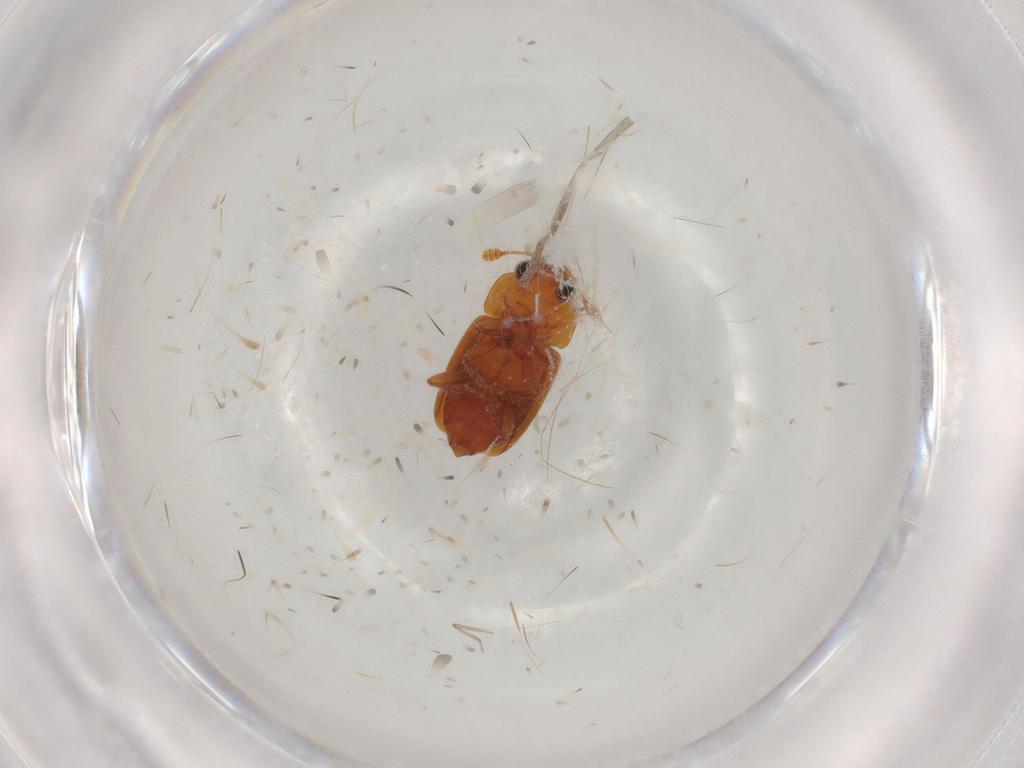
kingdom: Animalia
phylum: Arthropoda
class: Insecta
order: Coleoptera
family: Nitidulidae
